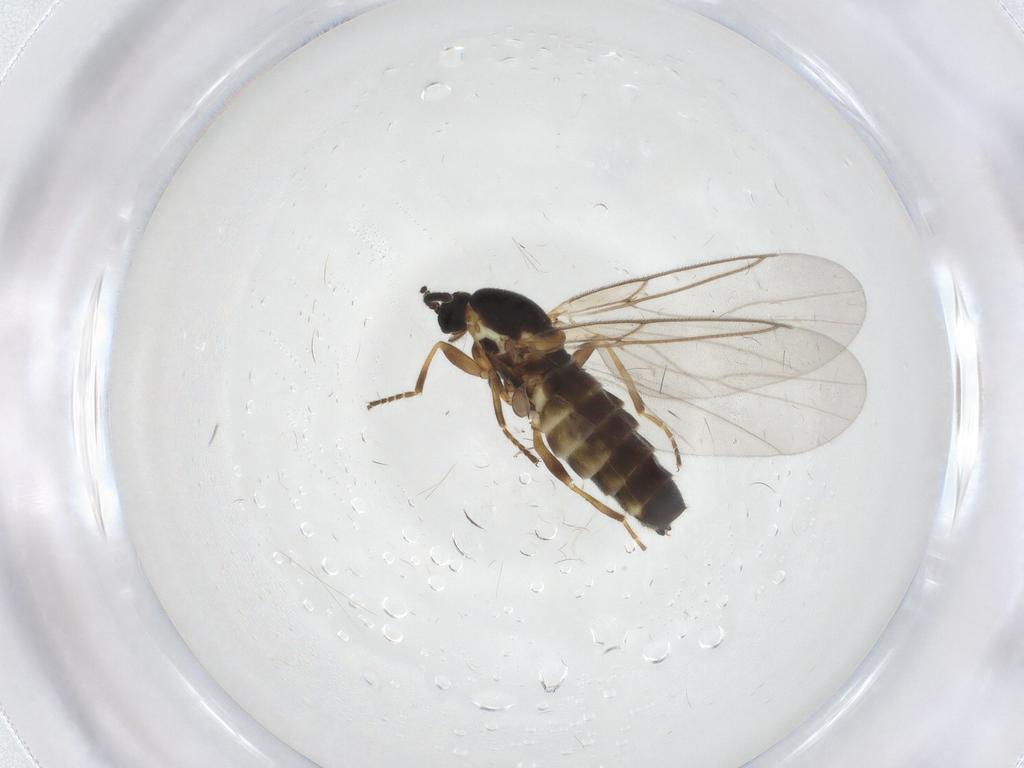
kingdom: Animalia
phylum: Arthropoda
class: Insecta
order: Diptera
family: Scatopsidae
